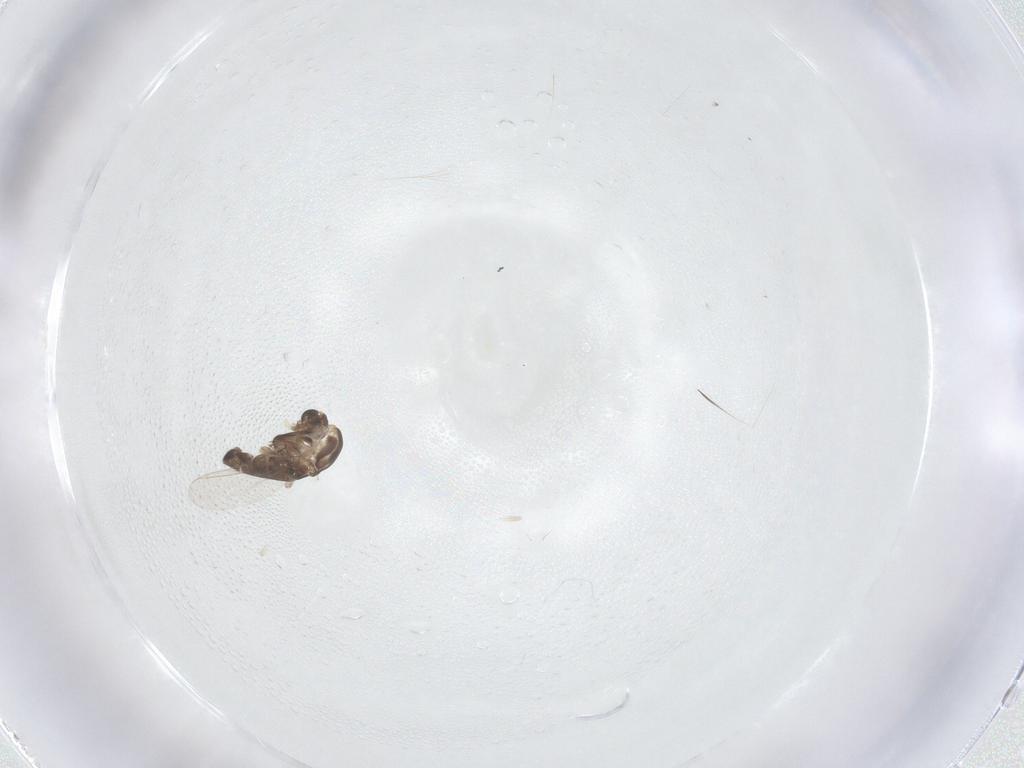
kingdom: Animalia
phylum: Arthropoda
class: Insecta
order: Diptera
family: Chironomidae
